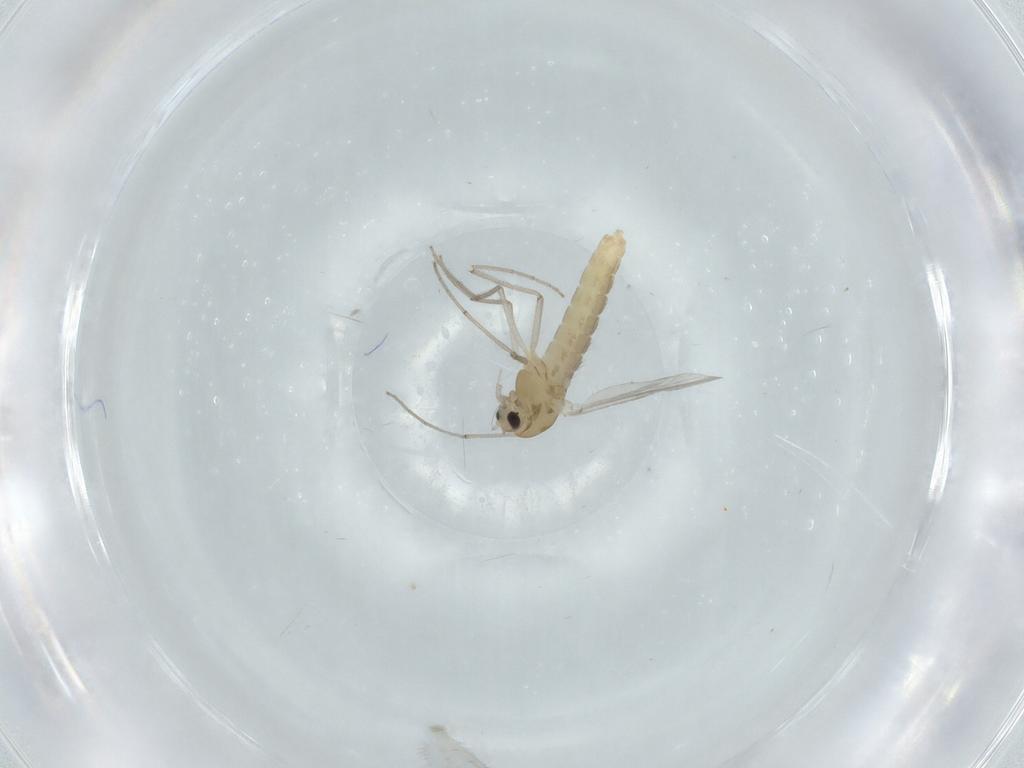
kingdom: Animalia
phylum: Arthropoda
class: Insecta
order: Diptera
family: Chironomidae
